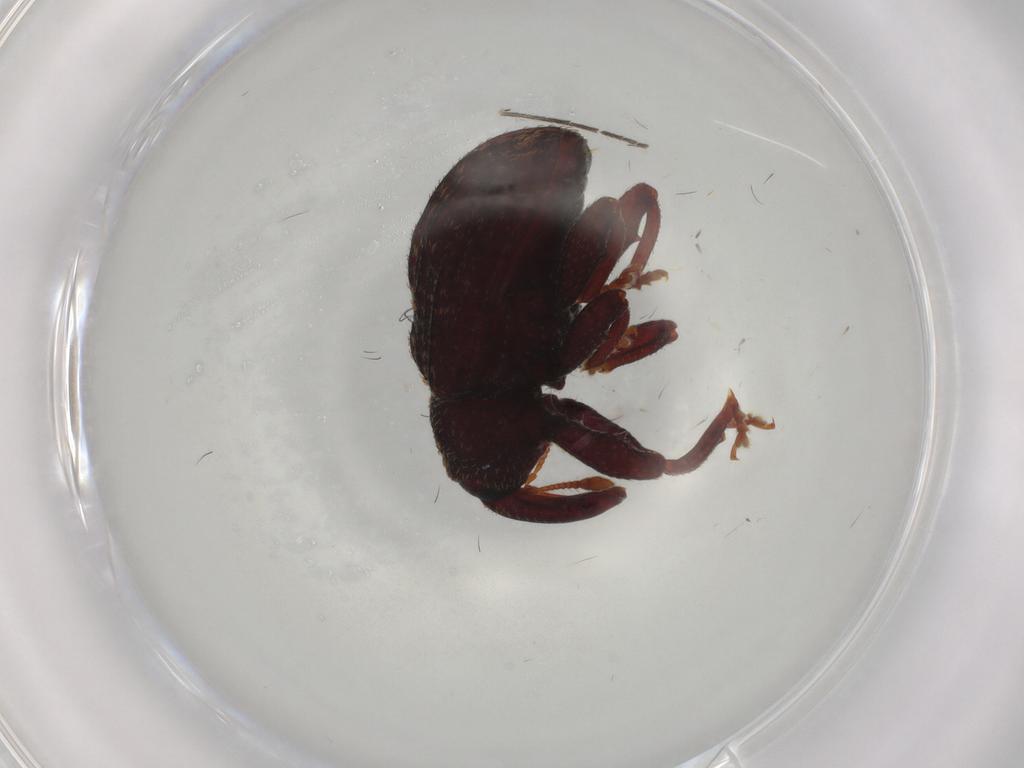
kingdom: Animalia
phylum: Arthropoda
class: Insecta
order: Coleoptera
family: Curculionidae
